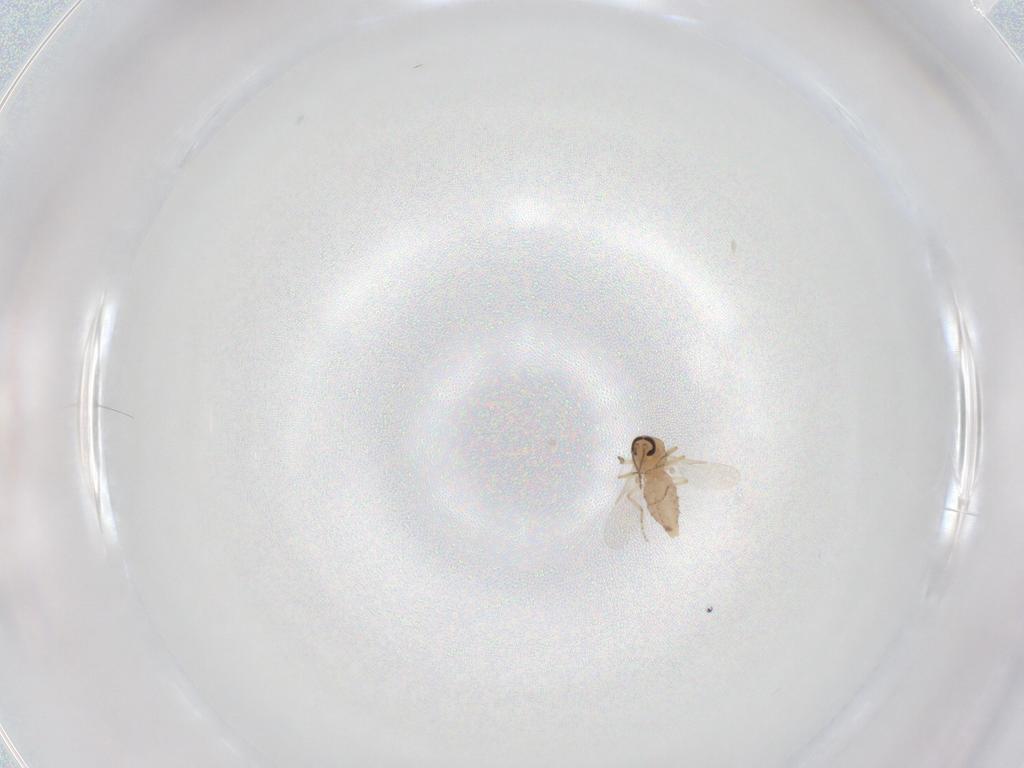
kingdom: Animalia
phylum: Arthropoda
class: Insecta
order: Diptera
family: Ceratopogonidae
